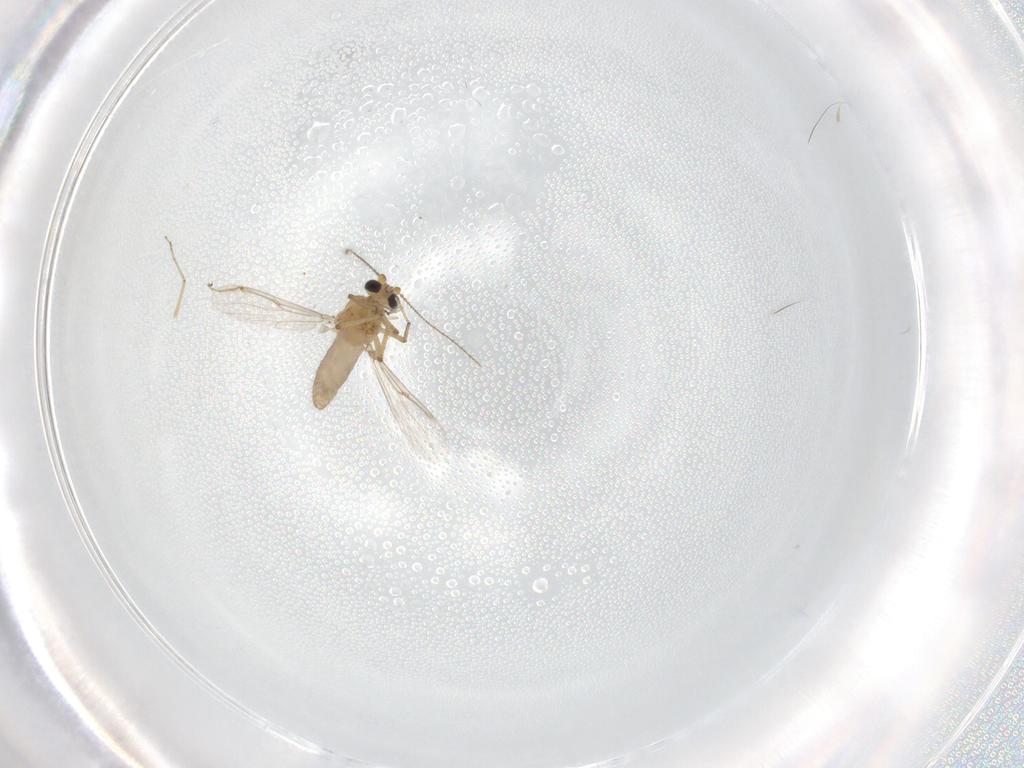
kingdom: Animalia
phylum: Arthropoda
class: Insecta
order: Diptera
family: Ceratopogonidae
